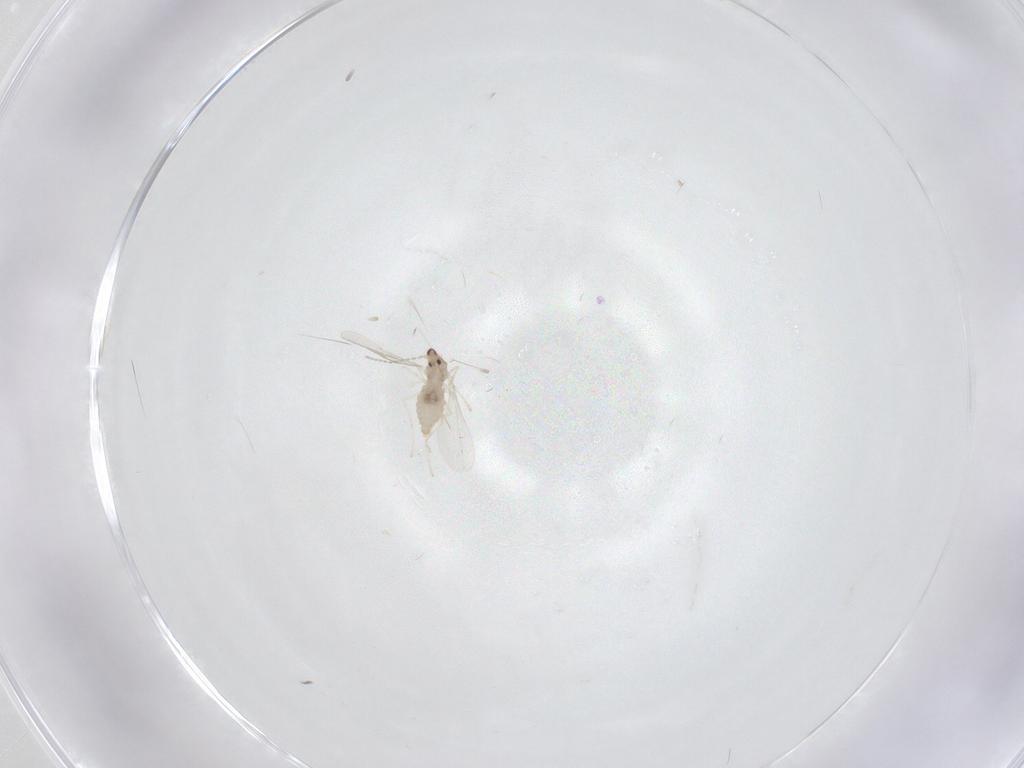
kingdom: Animalia
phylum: Arthropoda
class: Insecta
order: Diptera
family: Cecidomyiidae
